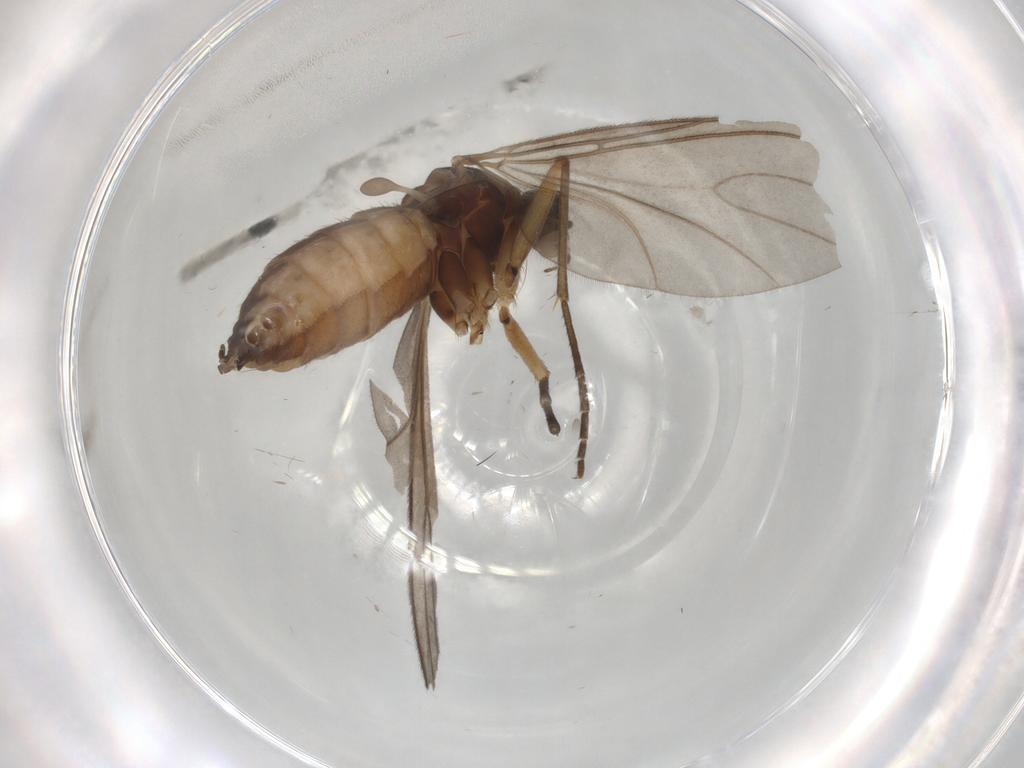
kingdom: Animalia
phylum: Arthropoda
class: Insecta
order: Diptera
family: Sciaridae
